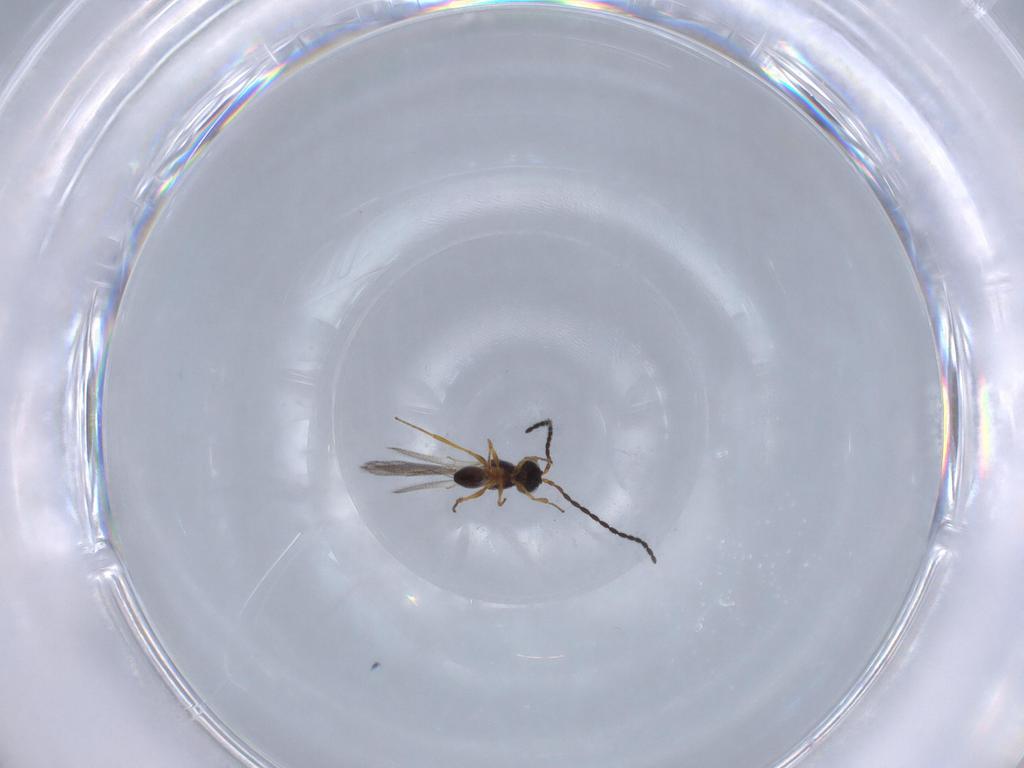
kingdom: Animalia
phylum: Arthropoda
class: Insecta
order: Hymenoptera
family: Figitidae
